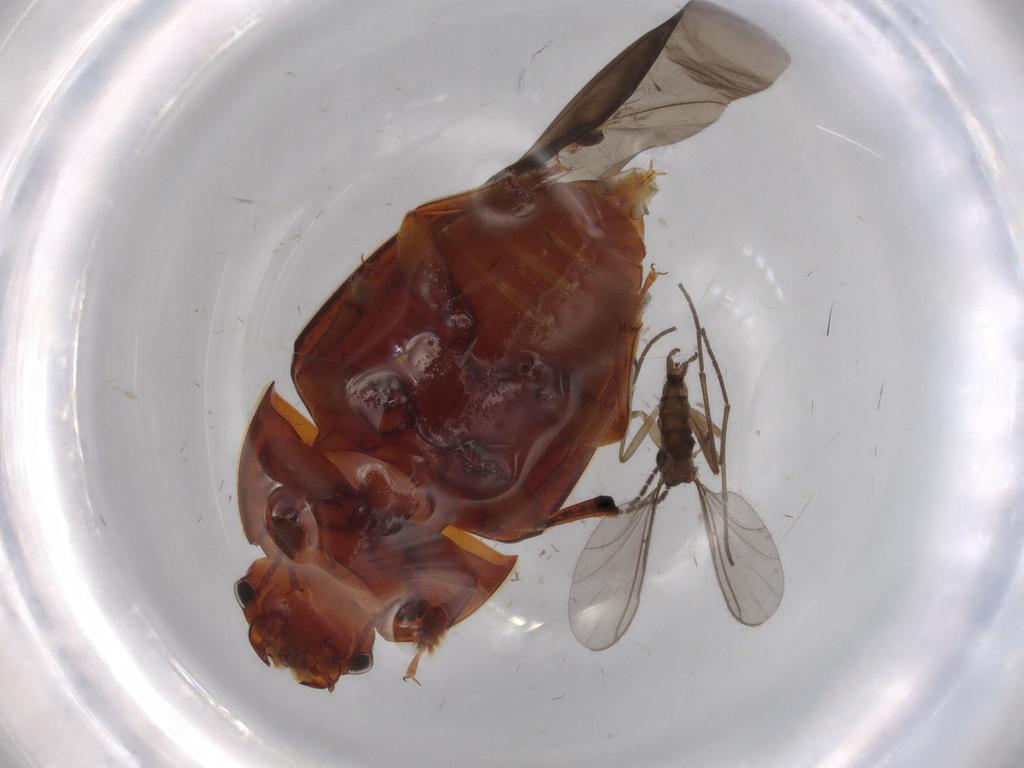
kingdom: Animalia
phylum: Arthropoda
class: Insecta
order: Coleoptera
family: Nitidulidae
